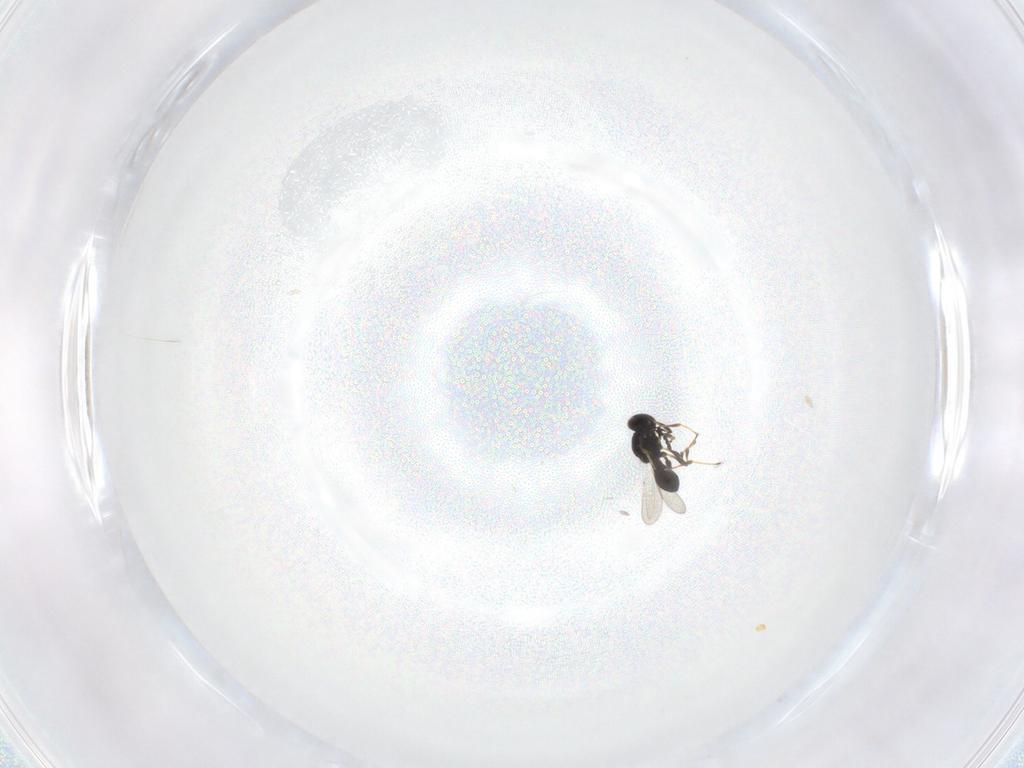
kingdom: Animalia
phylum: Arthropoda
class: Insecta
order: Hymenoptera
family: Platygastridae
